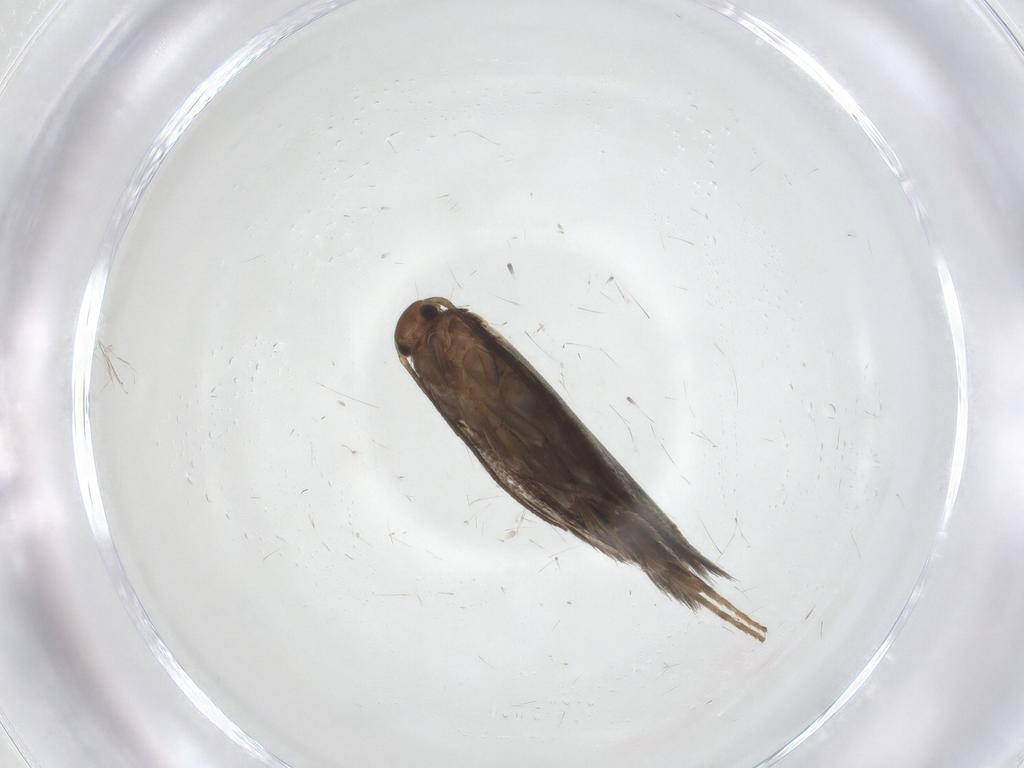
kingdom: Animalia
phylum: Arthropoda
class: Insecta
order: Lepidoptera
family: Elachistidae
